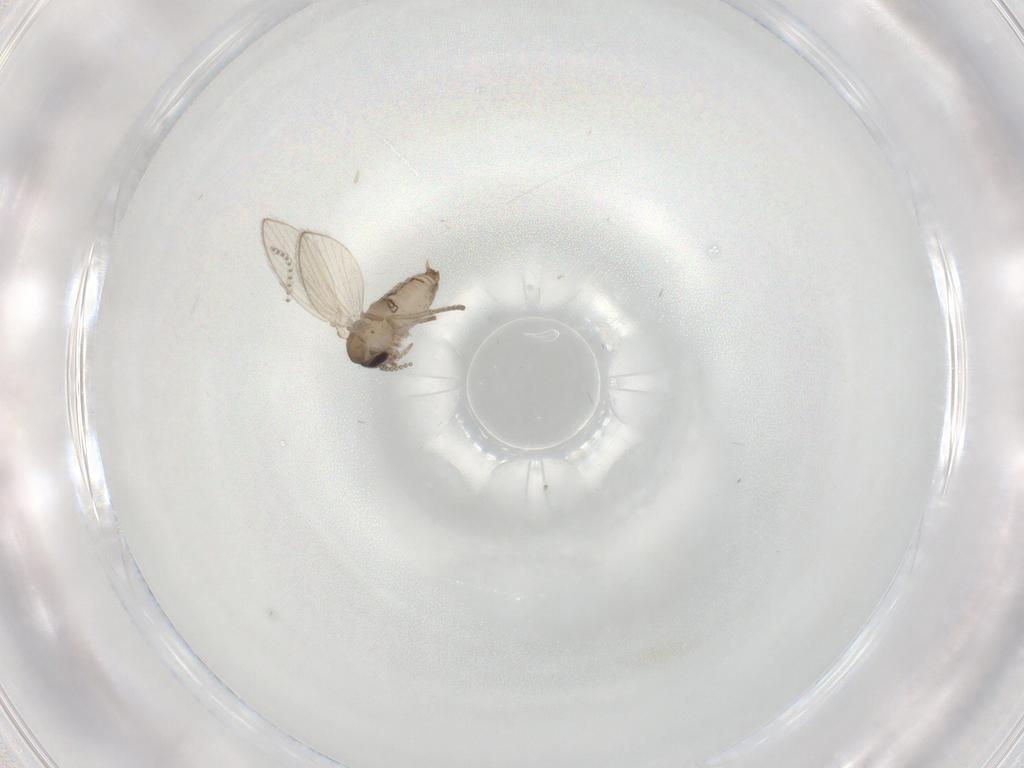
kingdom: Animalia
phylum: Arthropoda
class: Insecta
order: Diptera
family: Psychodidae
